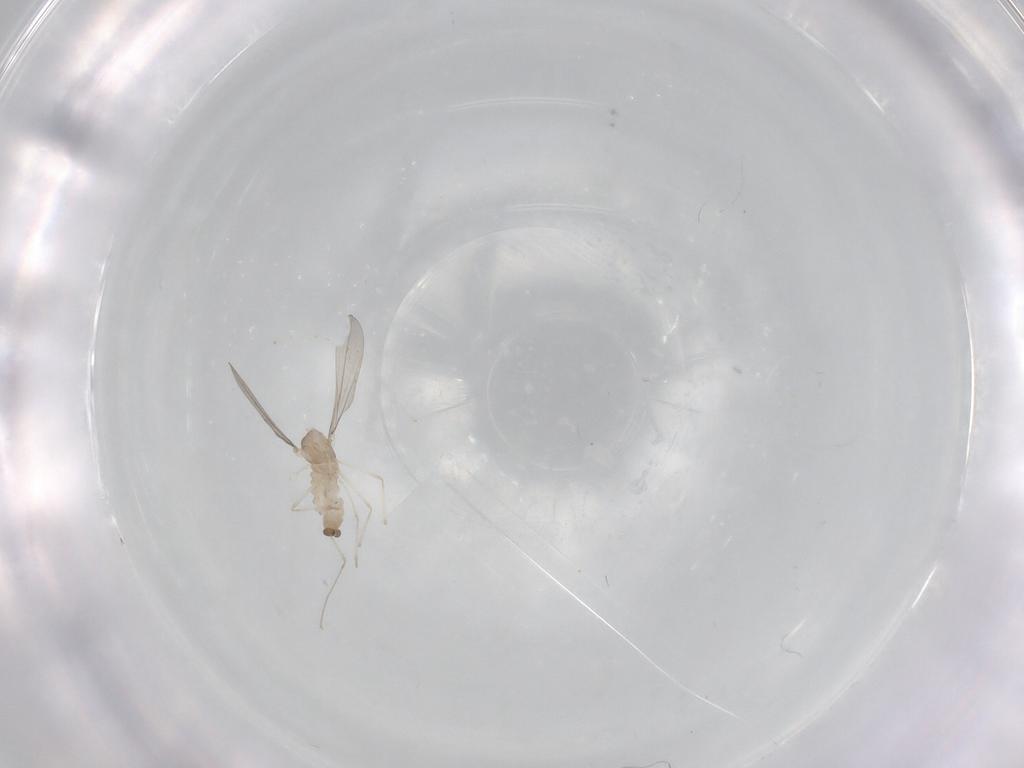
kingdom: Animalia
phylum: Arthropoda
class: Insecta
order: Diptera
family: Cecidomyiidae
